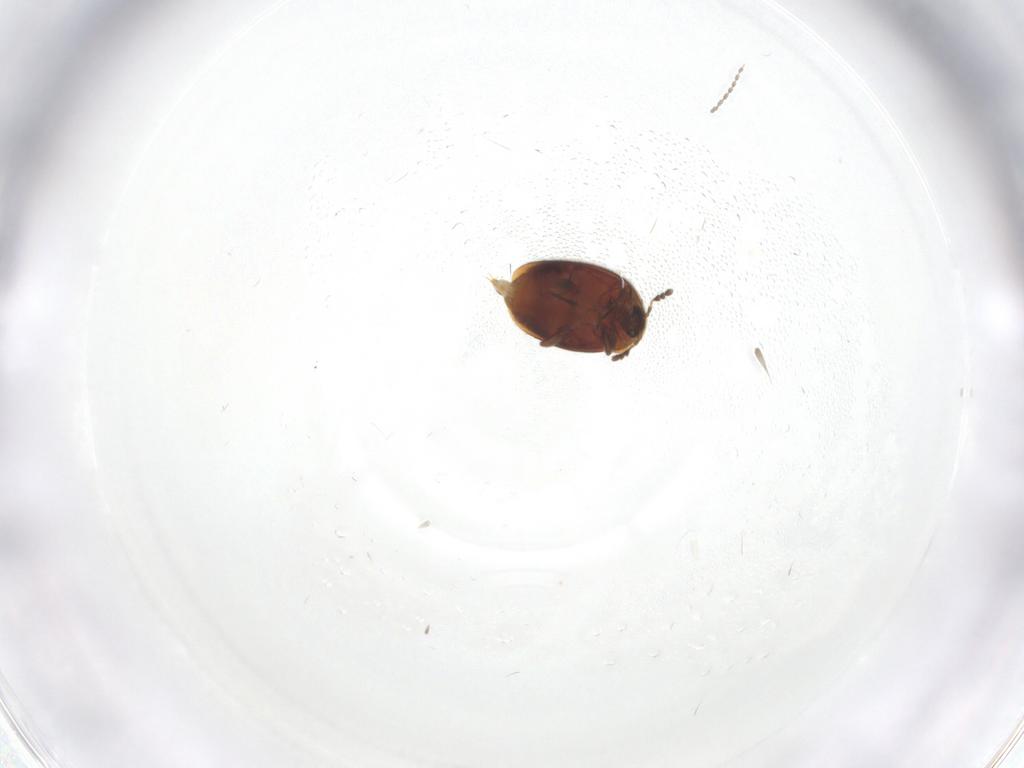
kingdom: Animalia
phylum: Arthropoda
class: Insecta
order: Coleoptera
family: Corylophidae
